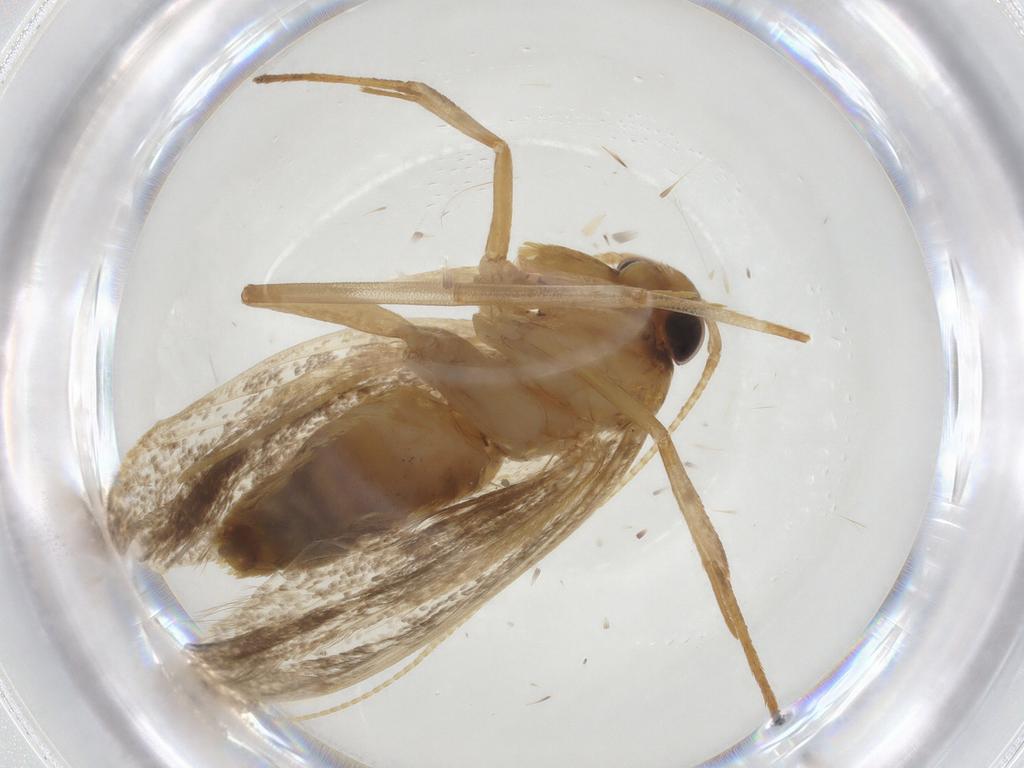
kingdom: Animalia
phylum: Arthropoda
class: Insecta
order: Lepidoptera
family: Lecithoceridae
